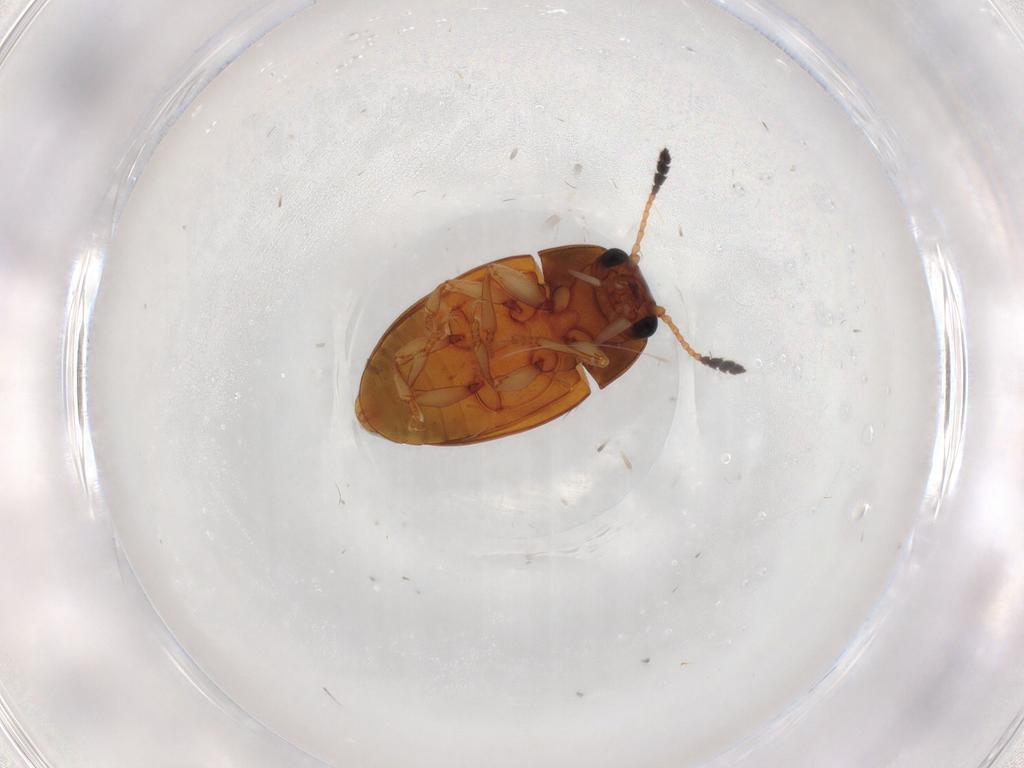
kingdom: Animalia
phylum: Arthropoda
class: Insecta
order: Coleoptera
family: Erotylidae
